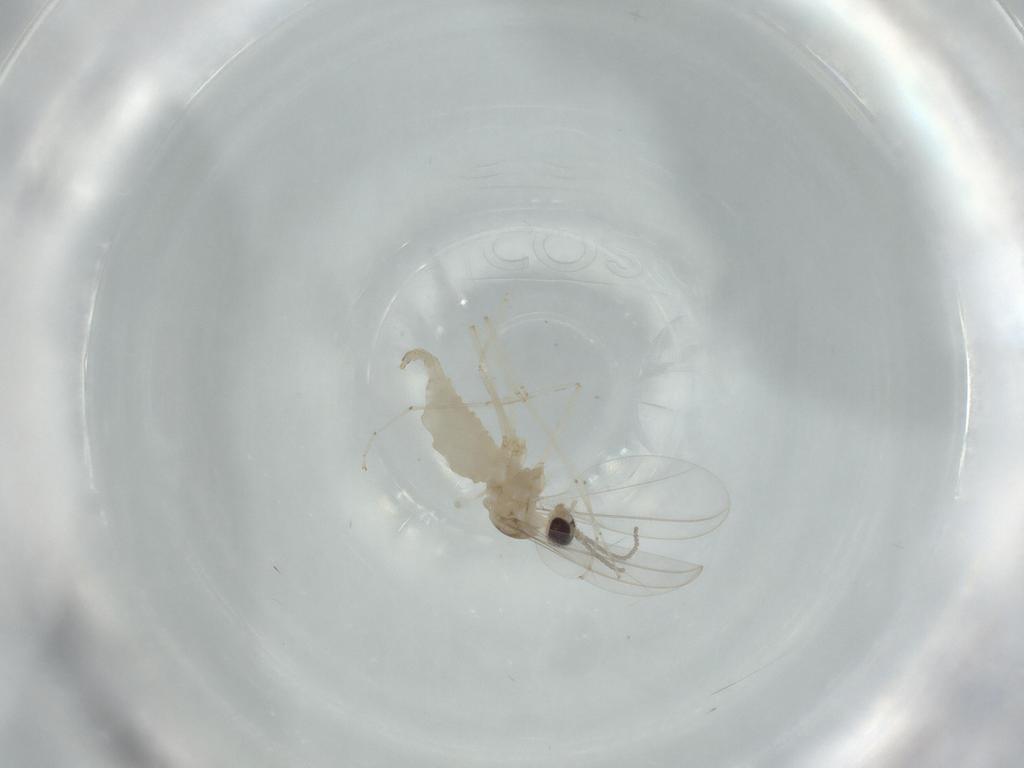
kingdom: Animalia
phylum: Arthropoda
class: Insecta
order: Diptera
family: Cecidomyiidae
